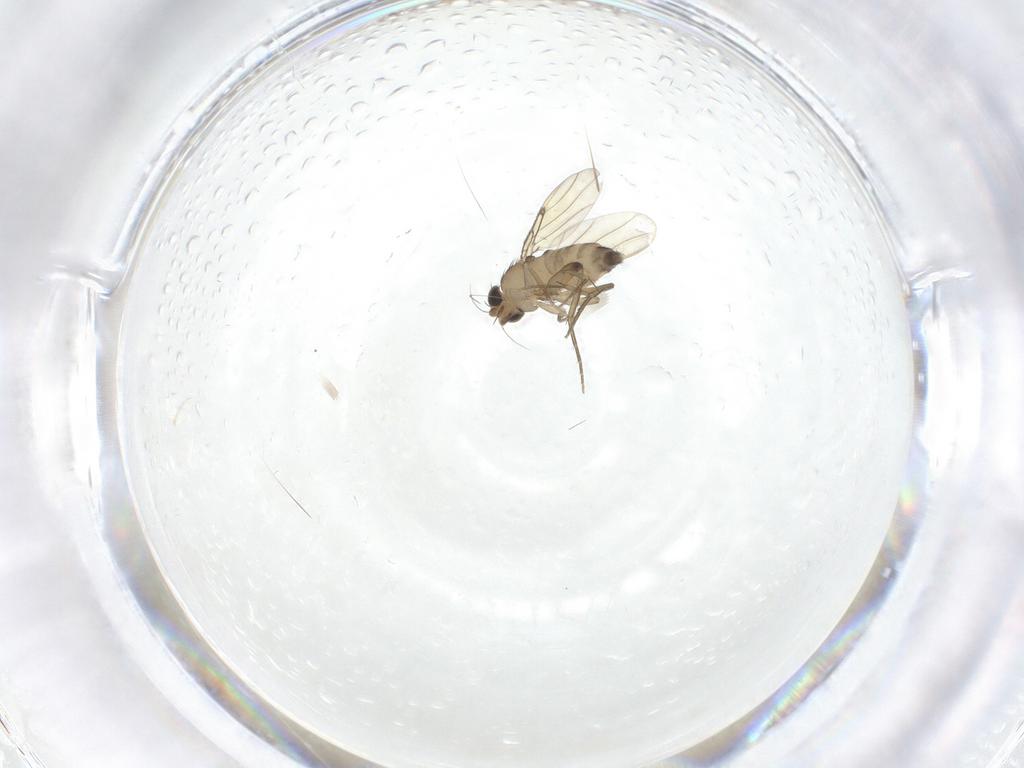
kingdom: Animalia
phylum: Arthropoda
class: Insecta
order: Diptera
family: Phoridae
